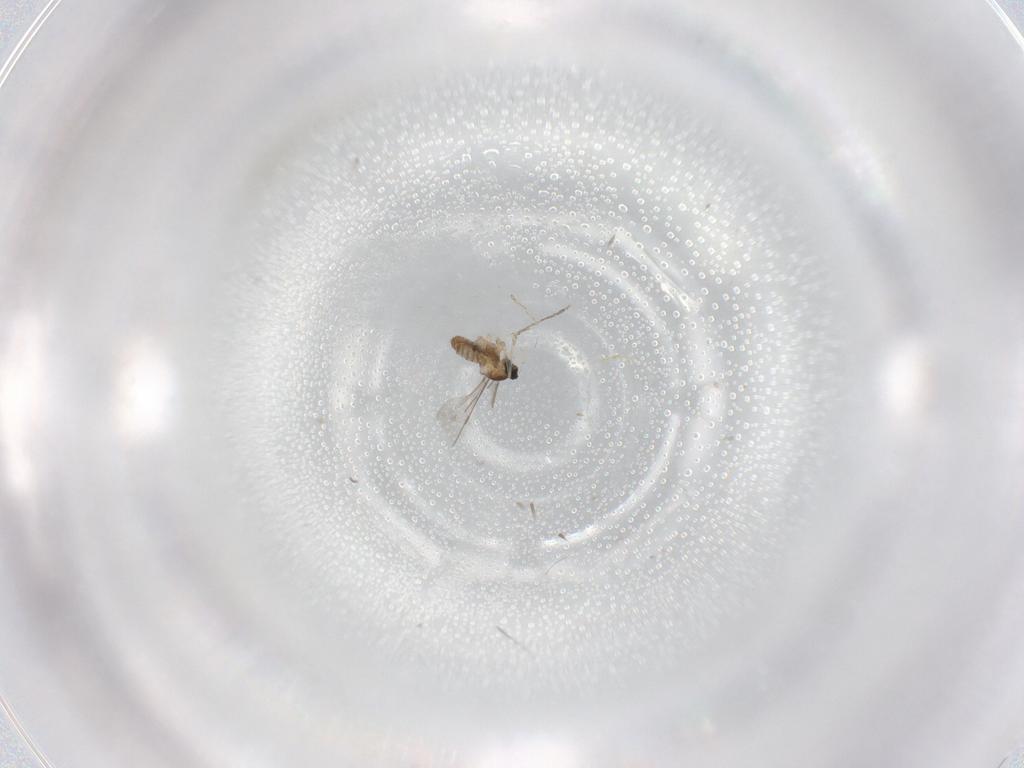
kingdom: Animalia
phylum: Arthropoda
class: Insecta
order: Diptera
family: Ceratopogonidae
